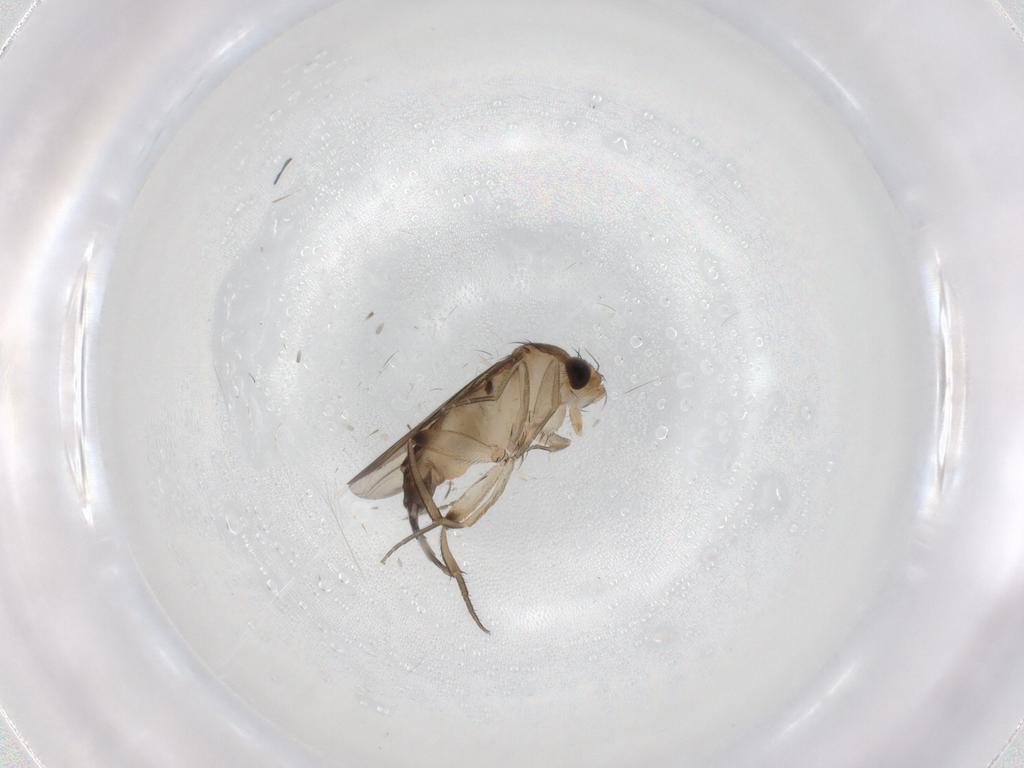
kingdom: Animalia
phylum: Arthropoda
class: Insecta
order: Diptera
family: Phoridae
